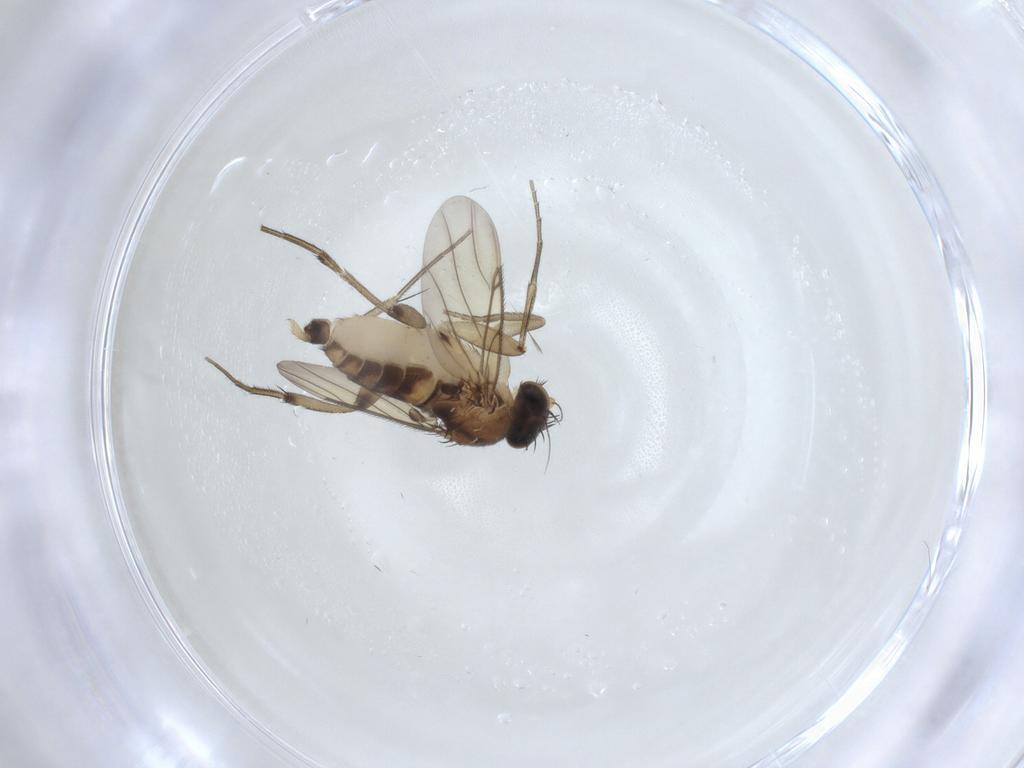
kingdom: Animalia
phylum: Arthropoda
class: Insecta
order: Diptera
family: Phoridae
